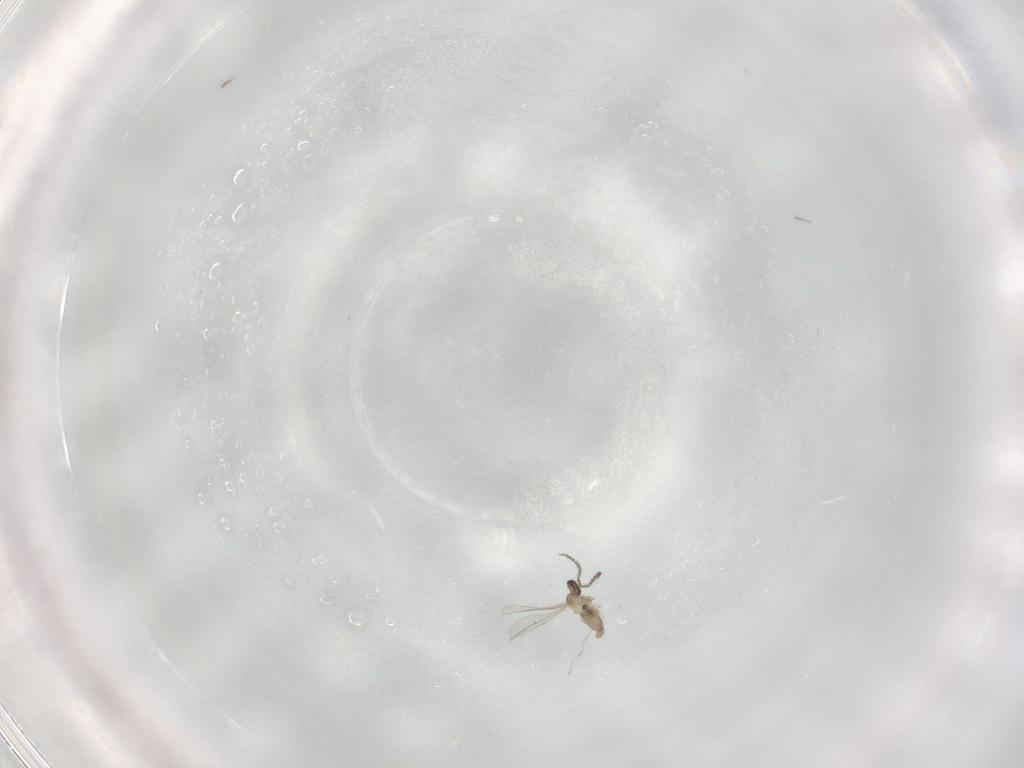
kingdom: Animalia
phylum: Arthropoda
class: Insecta
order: Diptera
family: Cecidomyiidae
